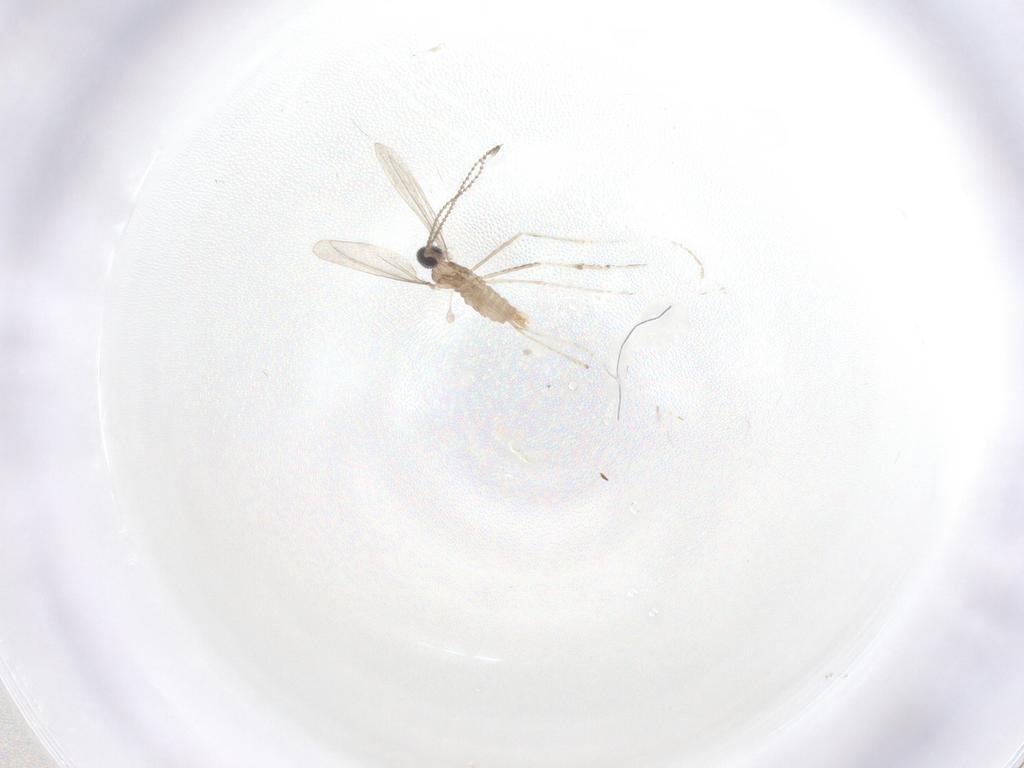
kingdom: Animalia
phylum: Arthropoda
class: Insecta
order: Diptera
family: Cecidomyiidae
